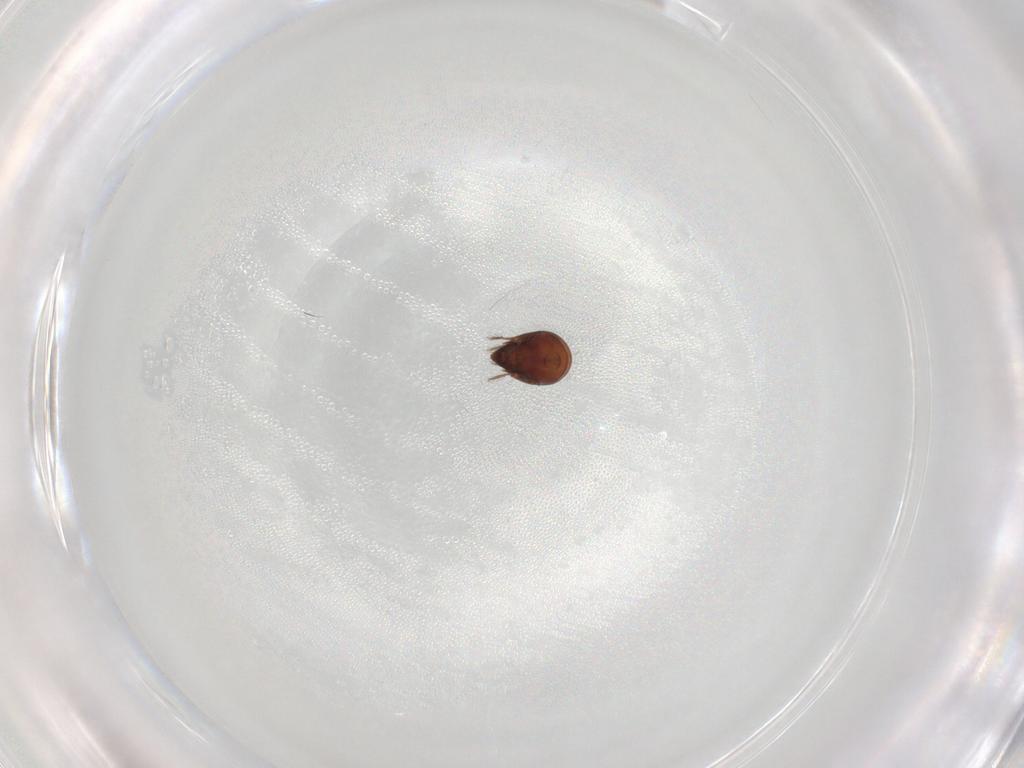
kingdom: Animalia
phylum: Arthropoda
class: Arachnida
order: Sarcoptiformes
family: Humerobatidae
